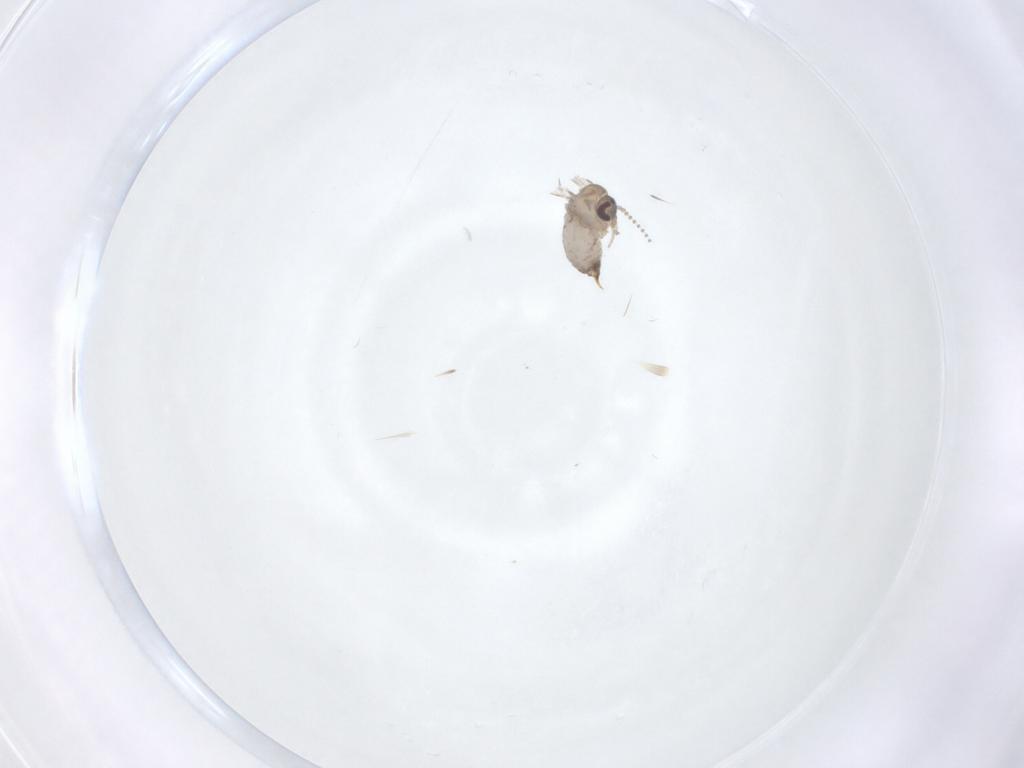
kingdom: Animalia
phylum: Arthropoda
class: Insecta
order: Diptera
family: Psychodidae
